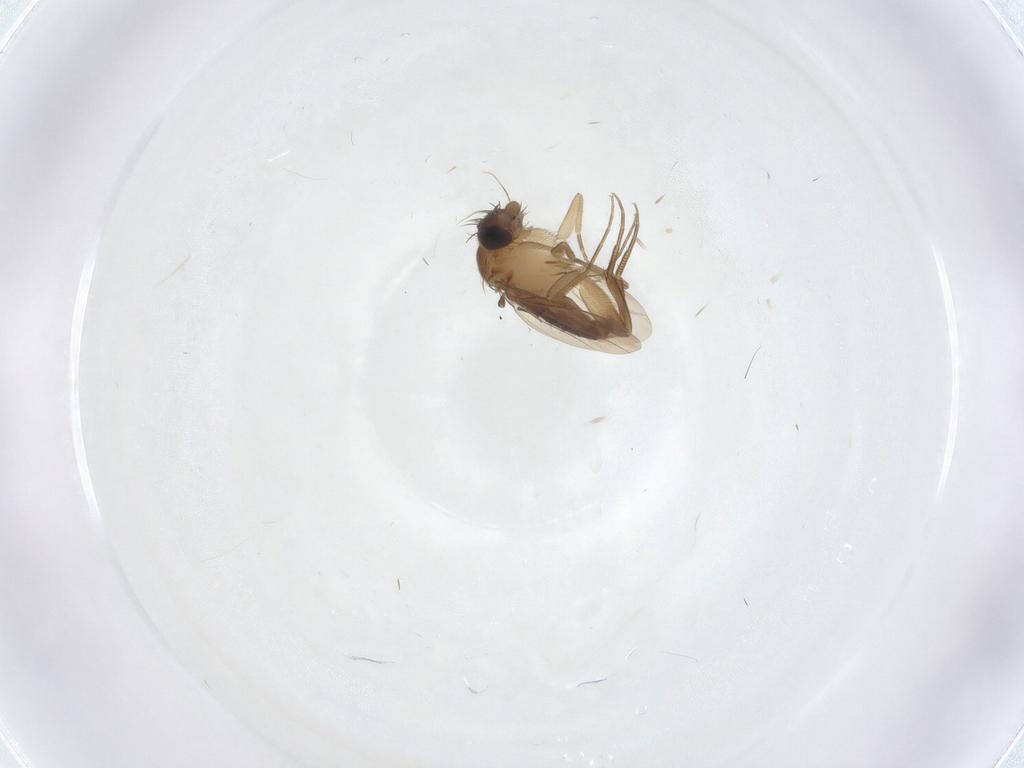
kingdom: Animalia
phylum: Arthropoda
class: Insecta
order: Diptera
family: Phoridae
